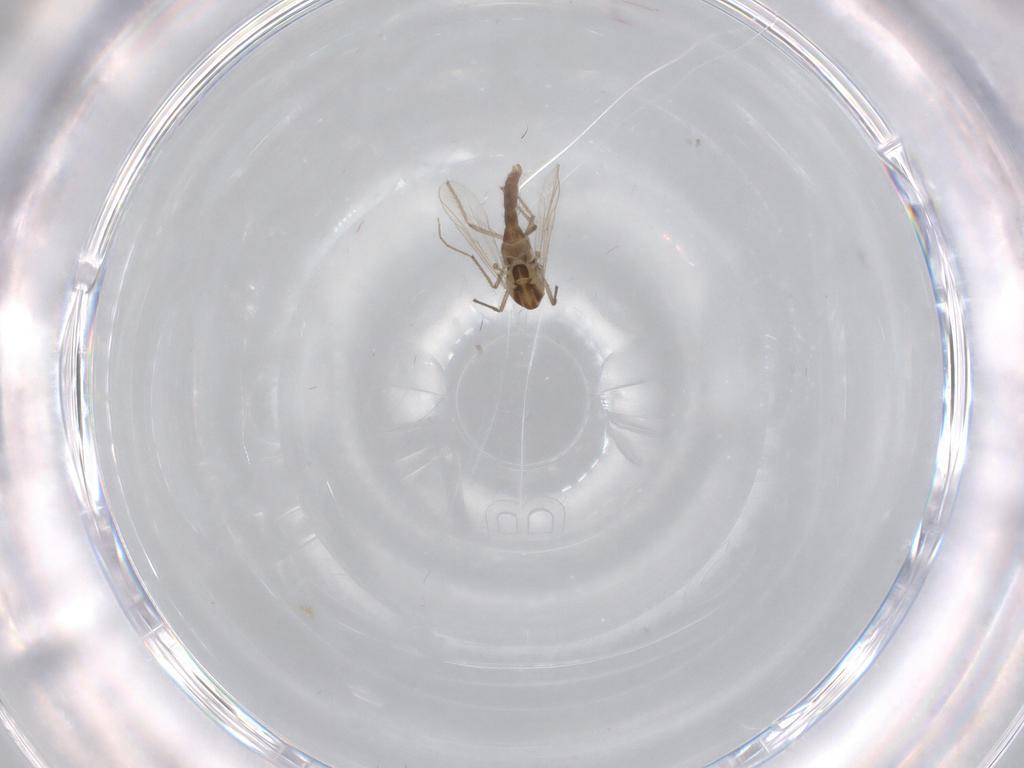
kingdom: Animalia
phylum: Arthropoda
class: Insecta
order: Diptera
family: Chironomidae
